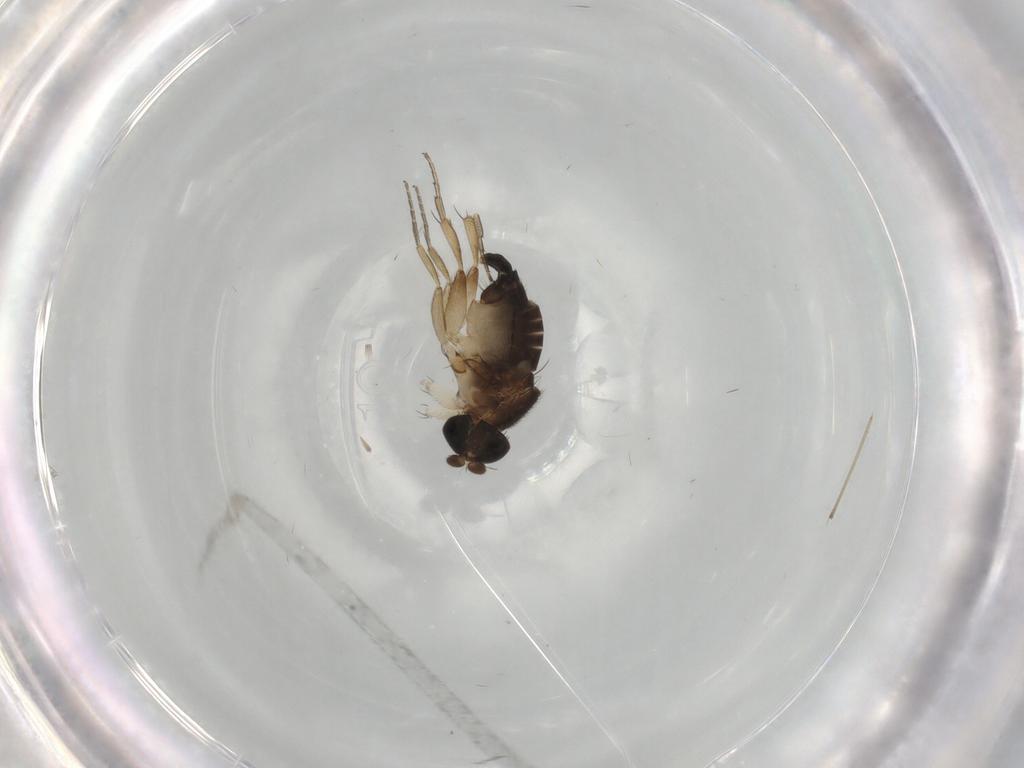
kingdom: Animalia
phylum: Arthropoda
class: Insecta
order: Diptera
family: Phoridae
